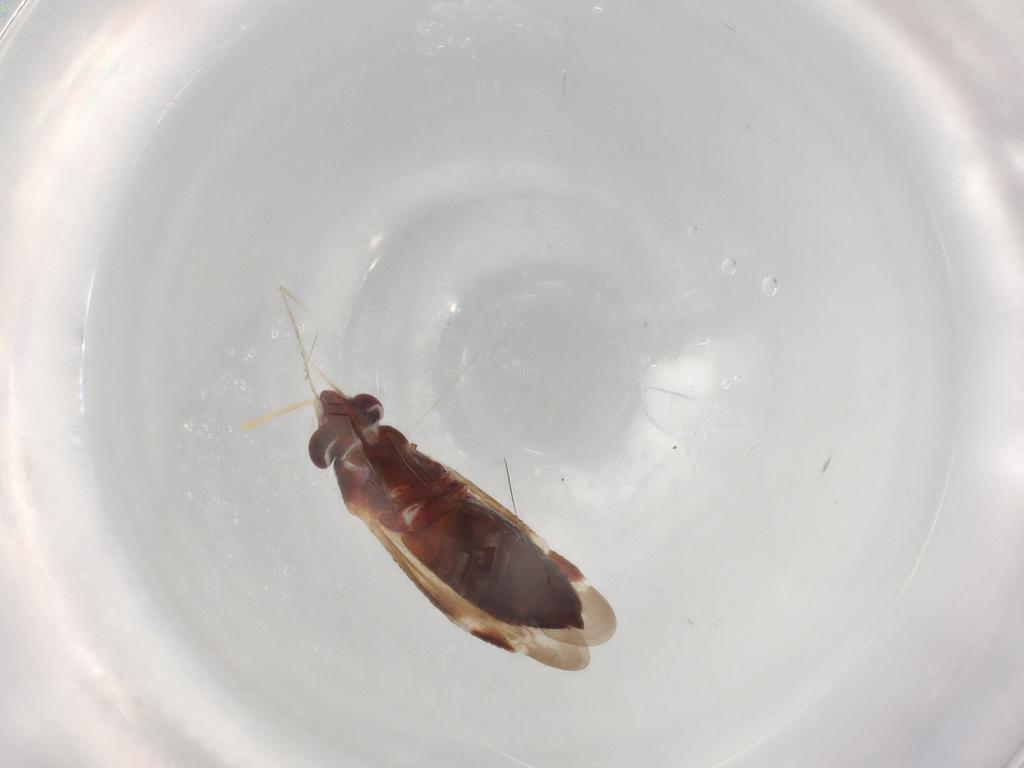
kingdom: Animalia
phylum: Arthropoda
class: Insecta
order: Hemiptera
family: Miridae
